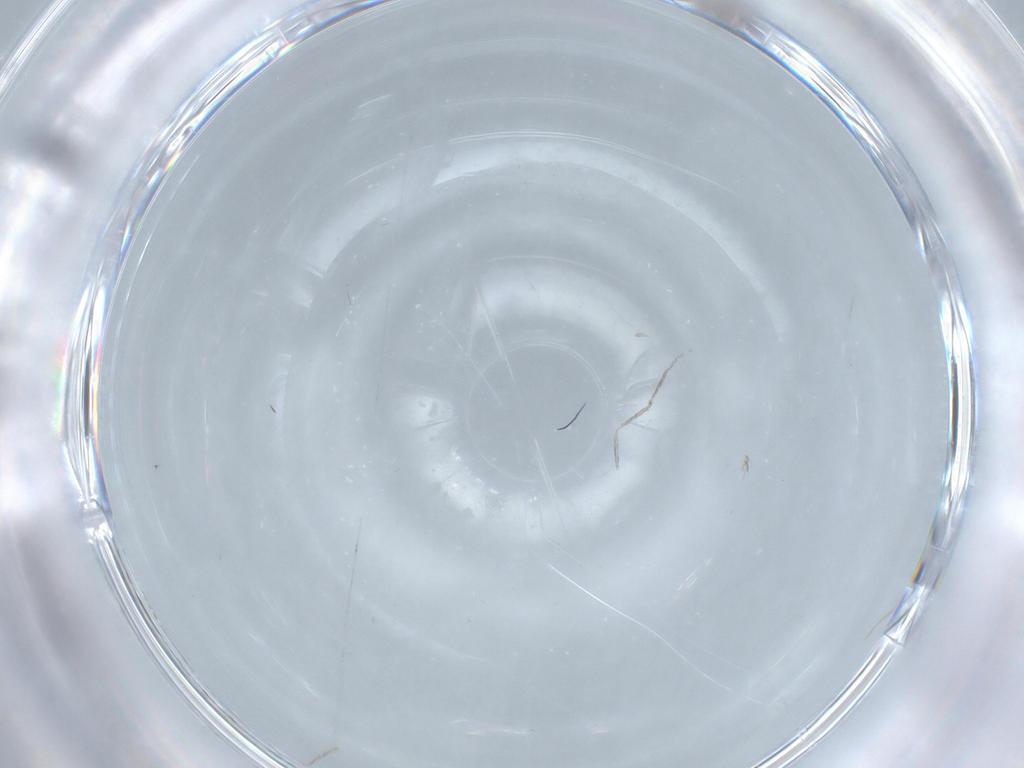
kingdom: Animalia
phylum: Arthropoda
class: Insecta
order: Diptera
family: Cecidomyiidae
